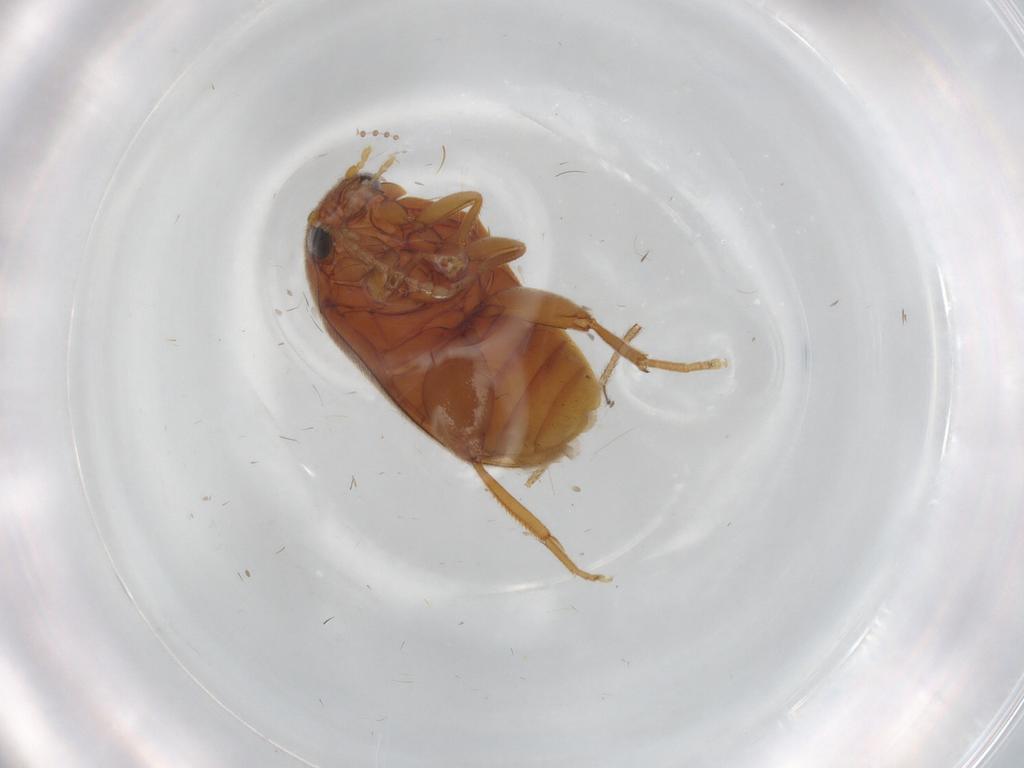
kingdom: Animalia
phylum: Arthropoda
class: Insecta
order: Coleoptera
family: Scirtidae
